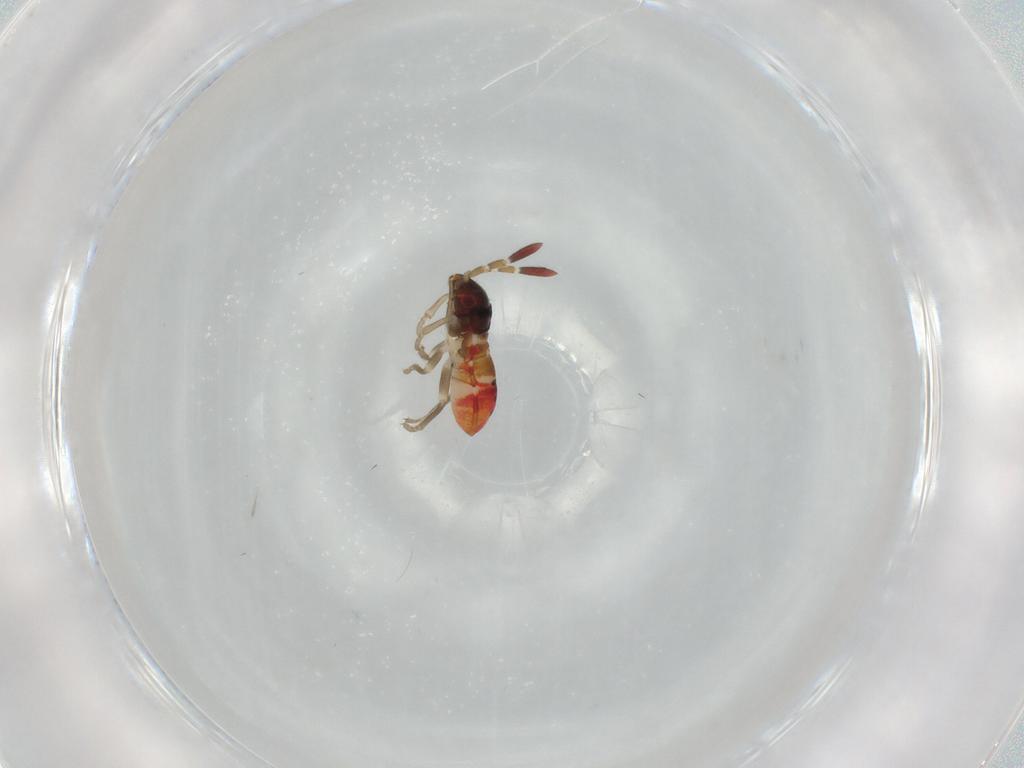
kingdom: Animalia
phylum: Arthropoda
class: Insecta
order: Hemiptera
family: Rhyparochromidae
